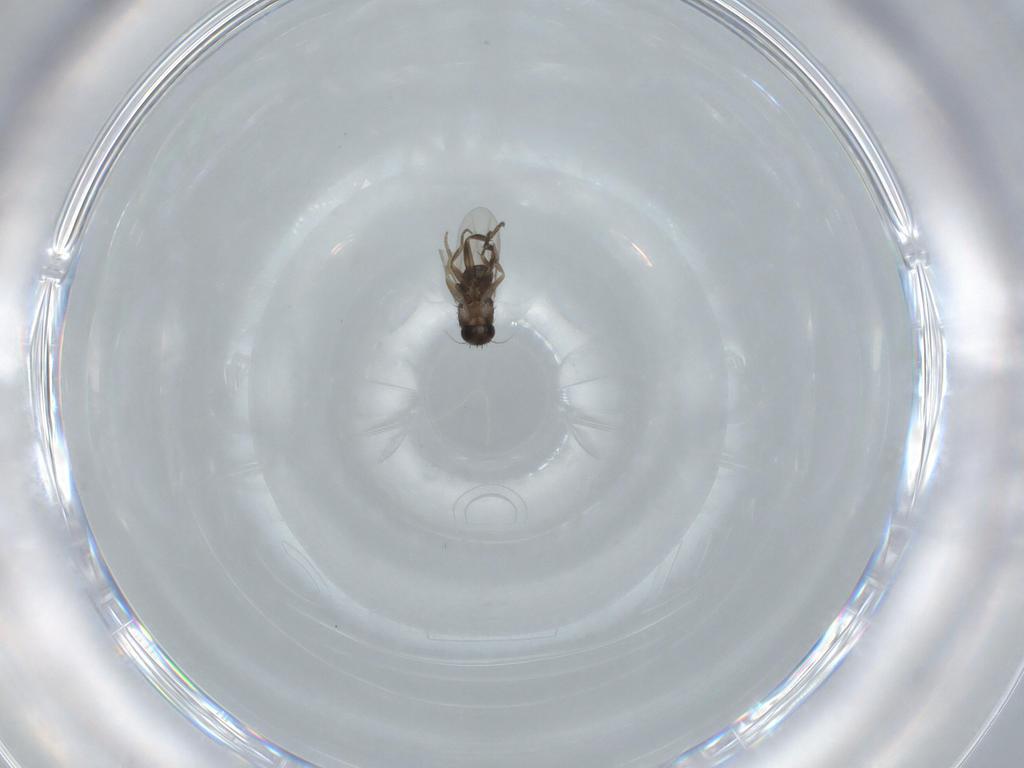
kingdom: Animalia
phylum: Arthropoda
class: Insecta
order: Diptera
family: Phoridae
